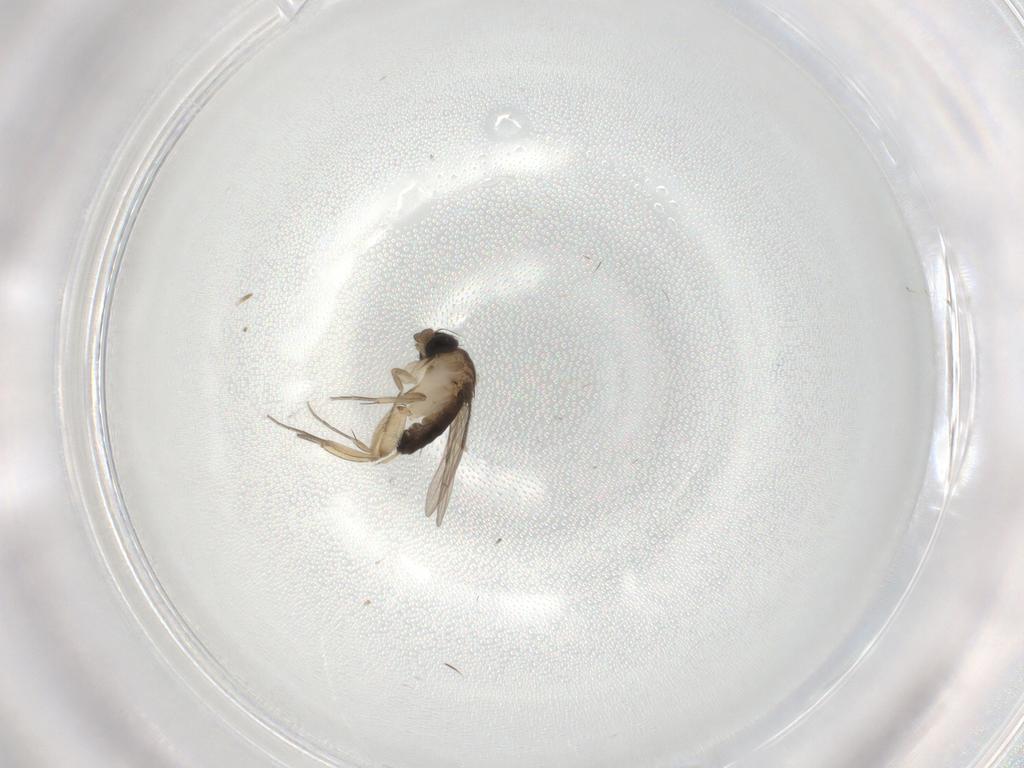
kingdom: Animalia
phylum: Arthropoda
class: Insecta
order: Diptera
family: Phoridae
